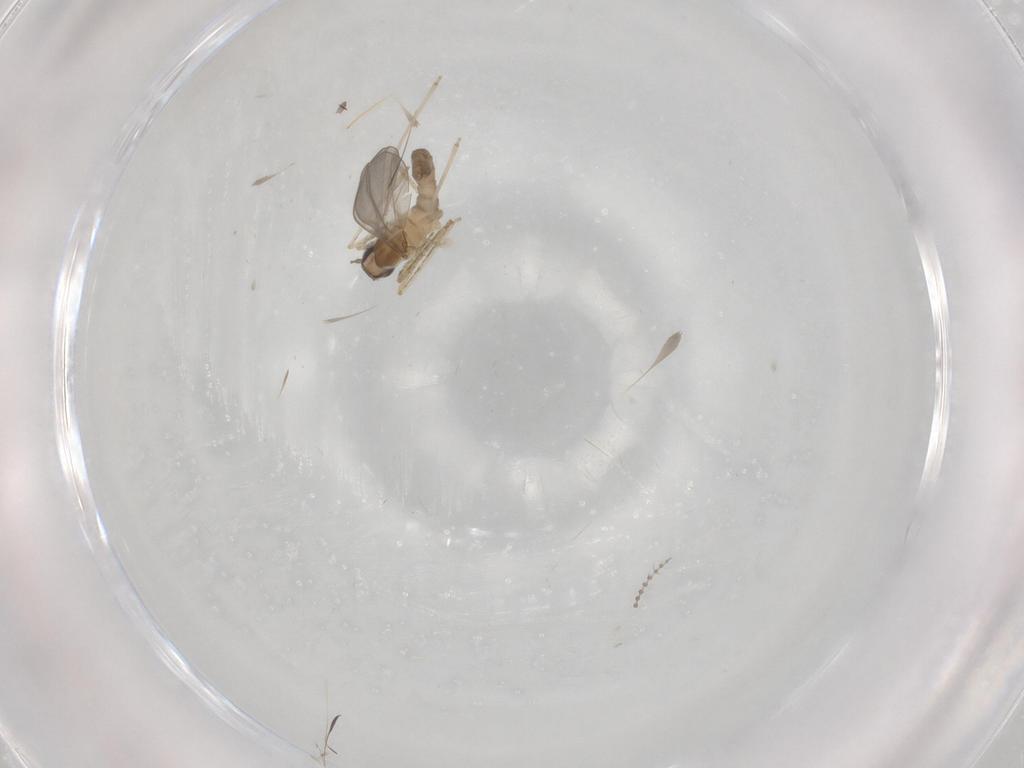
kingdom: Animalia
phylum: Arthropoda
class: Insecta
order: Diptera
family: Cecidomyiidae
